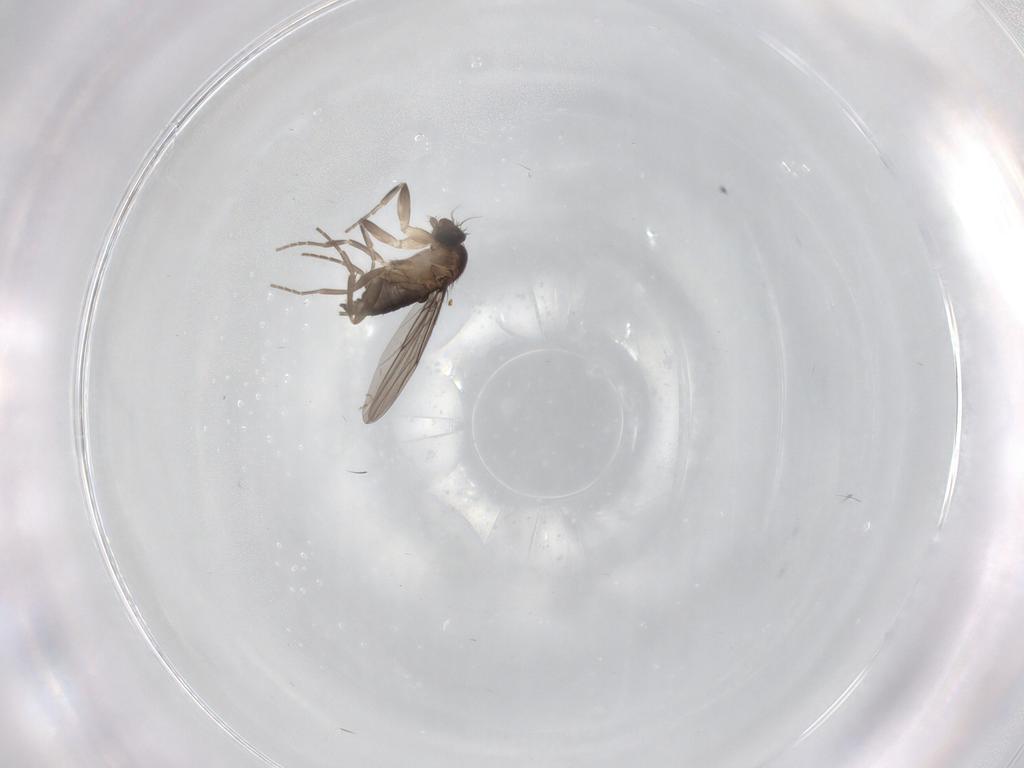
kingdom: Animalia
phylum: Arthropoda
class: Insecta
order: Diptera
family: Phoridae
